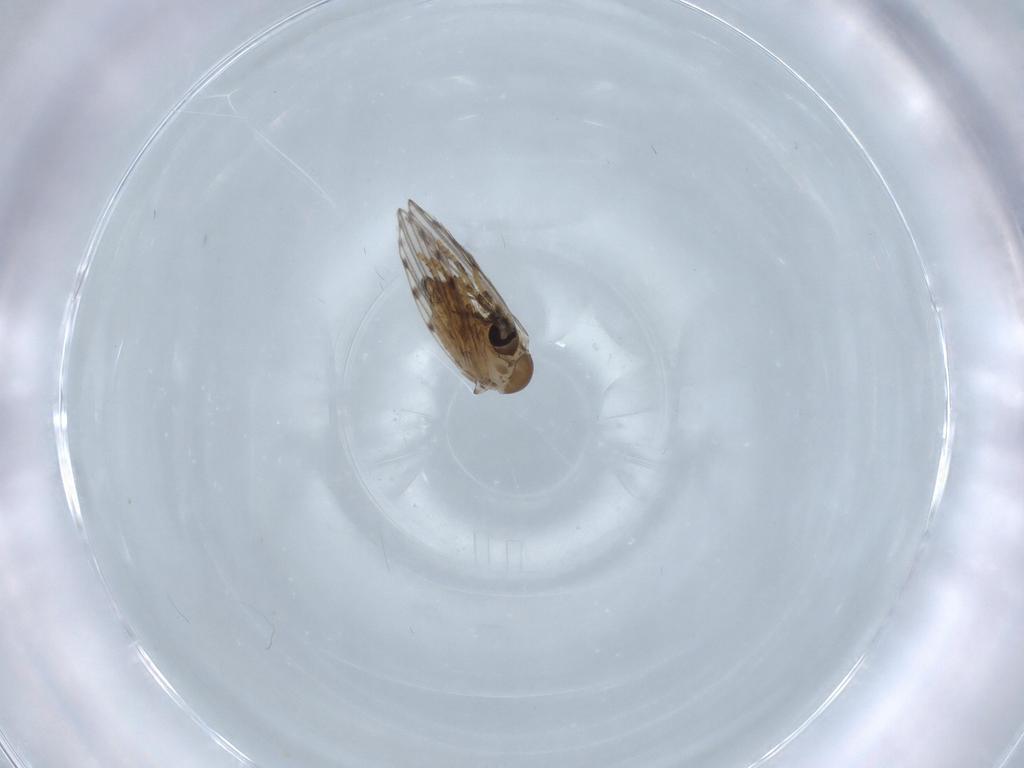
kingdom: Animalia
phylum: Arthropoda
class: Insecta
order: Diptera
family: Psychodidae
